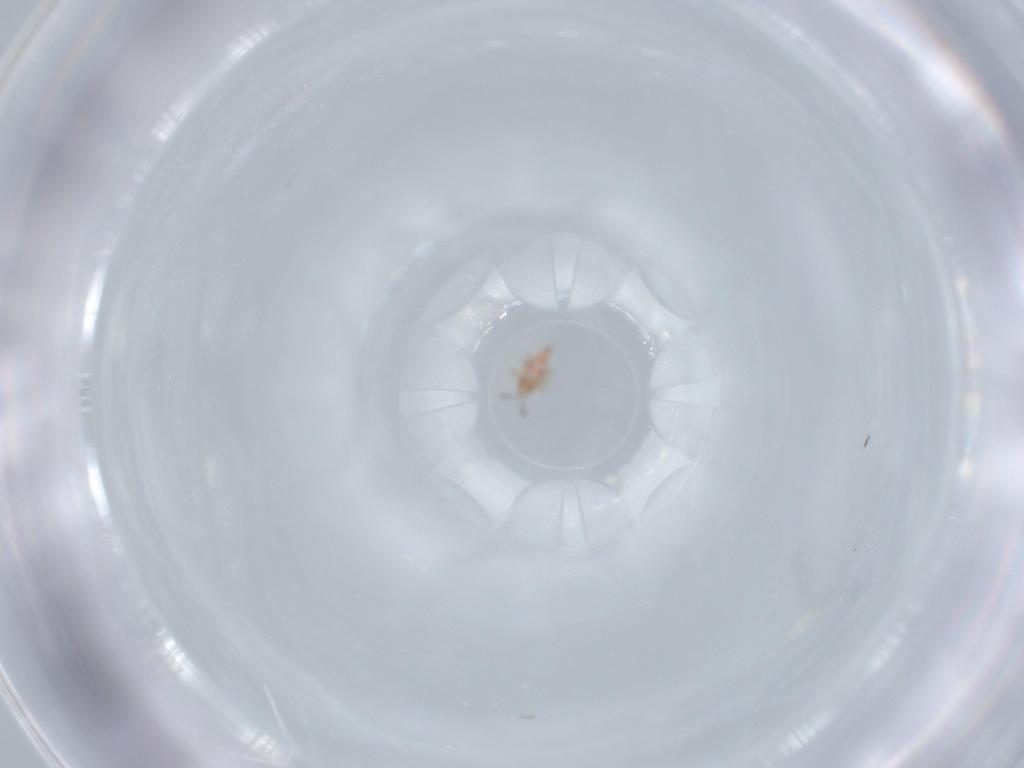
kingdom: Animalia
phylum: Arthropoda
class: Insecta
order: Thysanoptera
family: Phlaeothripidae
